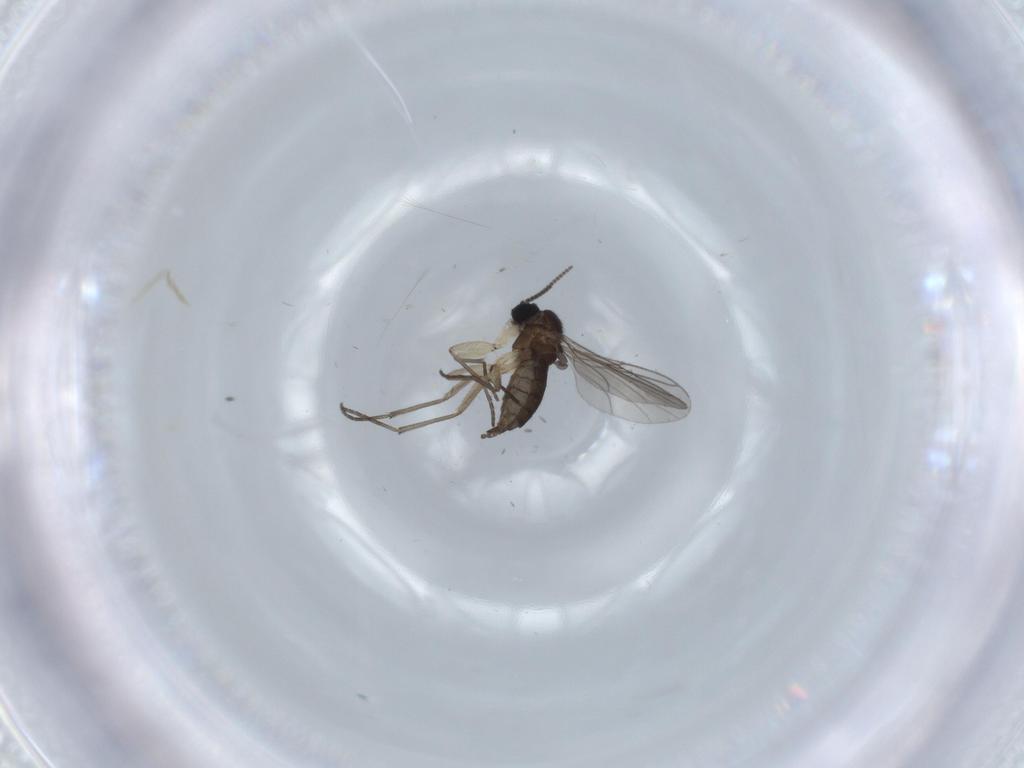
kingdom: Animalia
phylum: Arthropoda
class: Insecta
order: Diptera
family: Sciaridae
